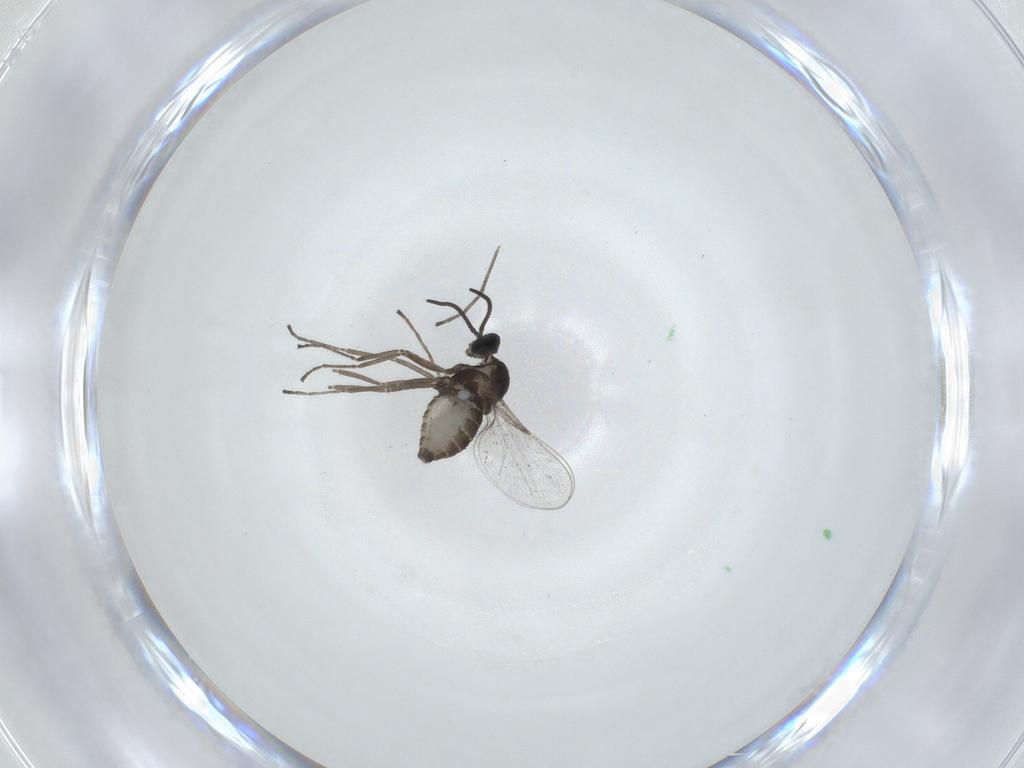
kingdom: Animalia
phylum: Arthropoda
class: Insecta
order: Diptera
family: Cecidomyiidae
